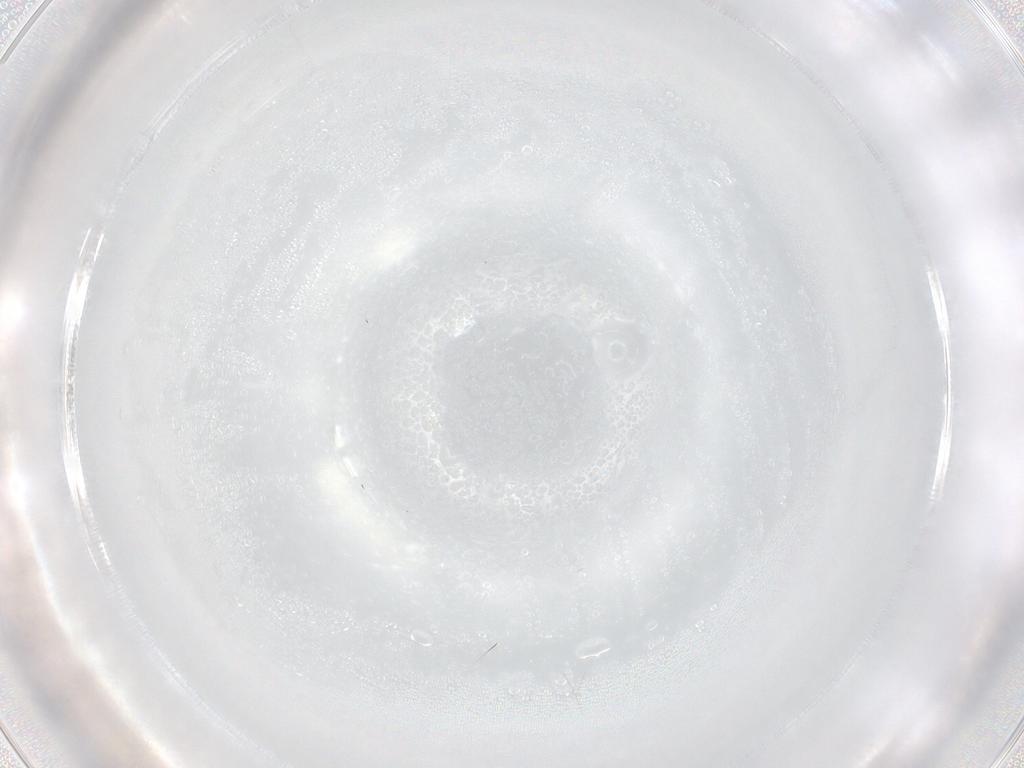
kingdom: Animalia
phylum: Arthropoda
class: Insecta
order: Diptera
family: Phoridae
